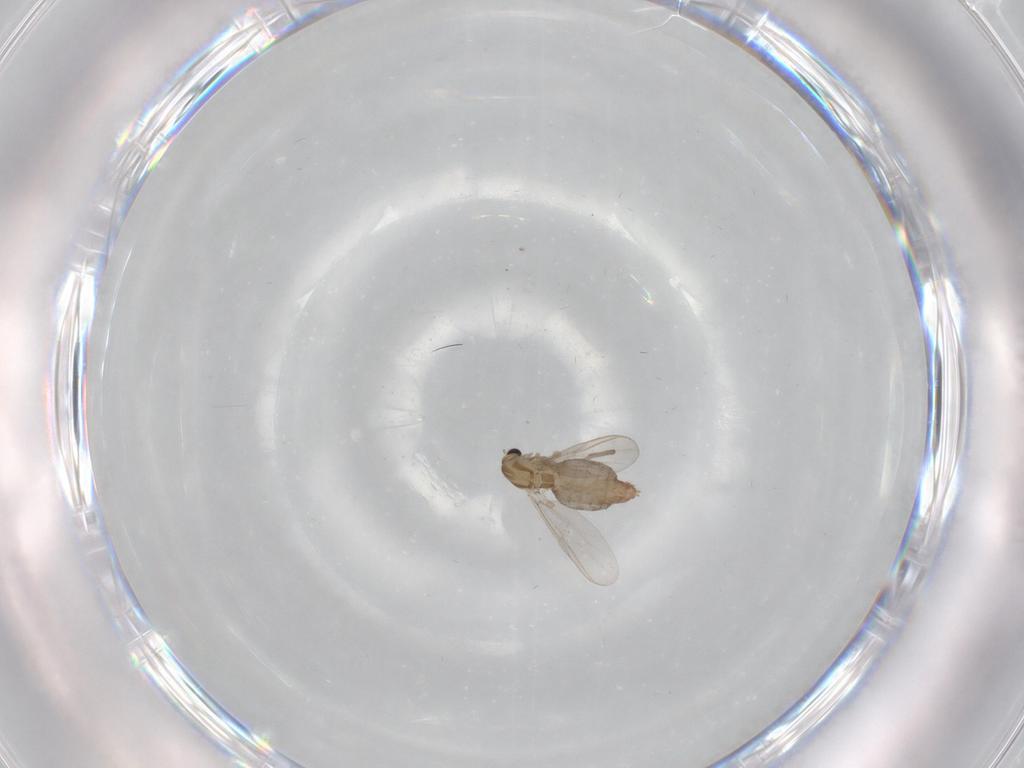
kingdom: Animalia
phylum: Arthropoda
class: Insecta
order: Diptera
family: Chironomidae
